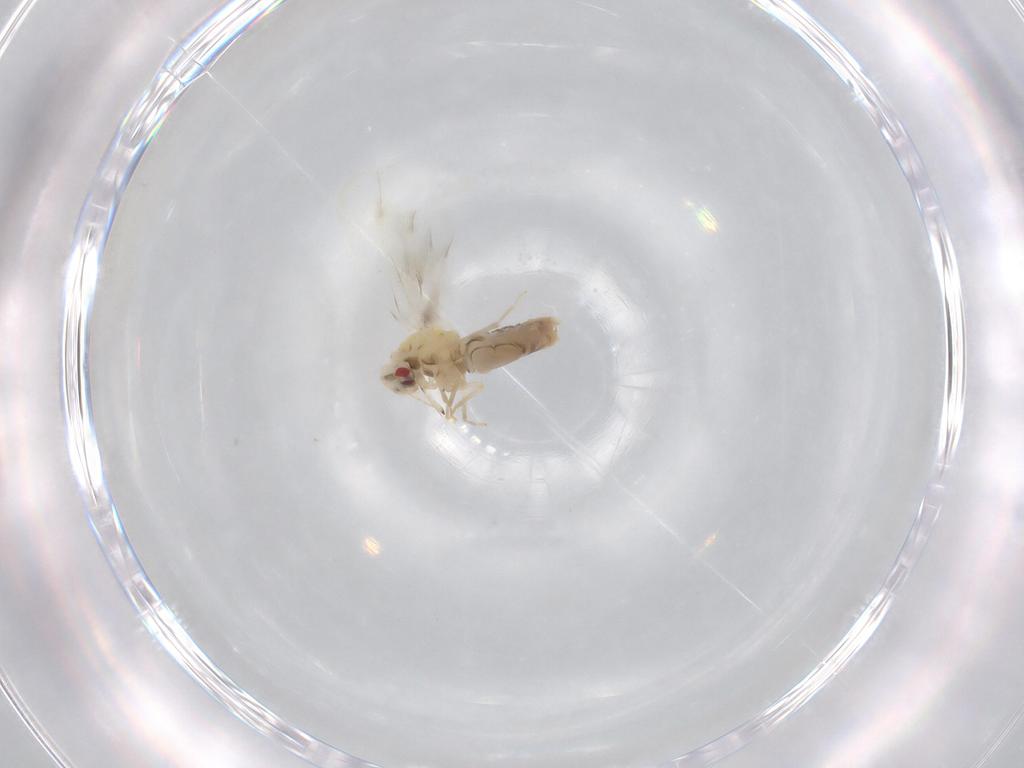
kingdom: Animalia
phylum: Arthropoda
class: Insecta
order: Hemiptera
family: Aleyrodidae
